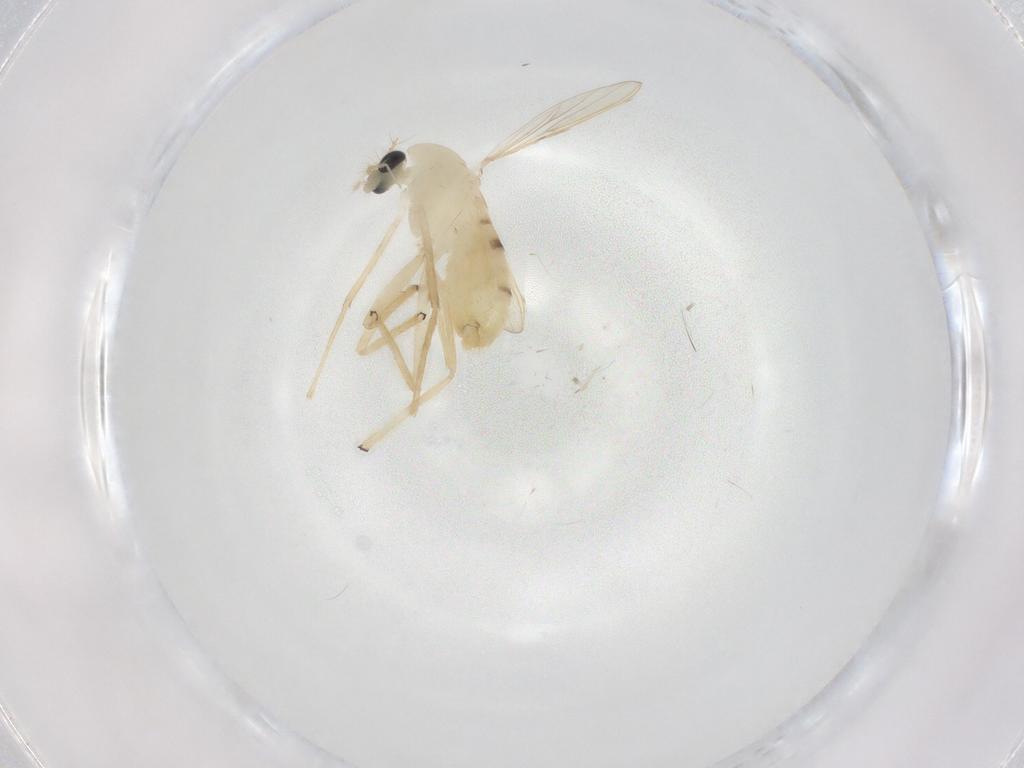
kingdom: Animalia
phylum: Arthropoda
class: Insecta
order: Diptera
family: Chironomidae
